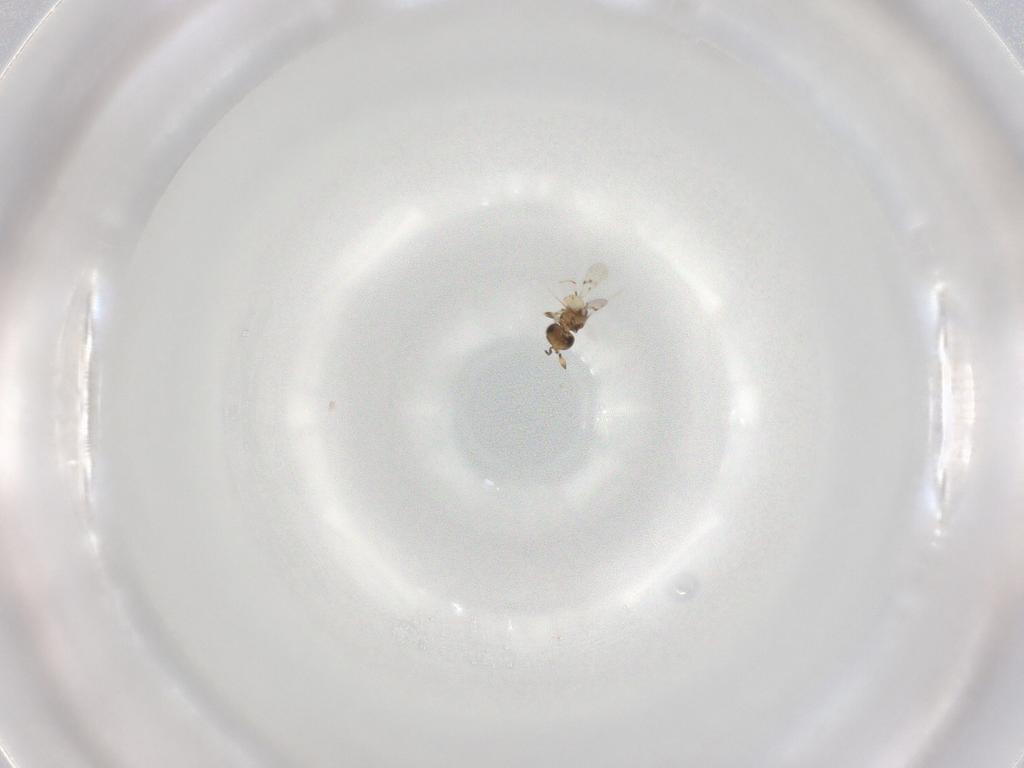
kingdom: Animalia
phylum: Arthropoda
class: Insecta
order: Hymenoptera
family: Scelionidae
